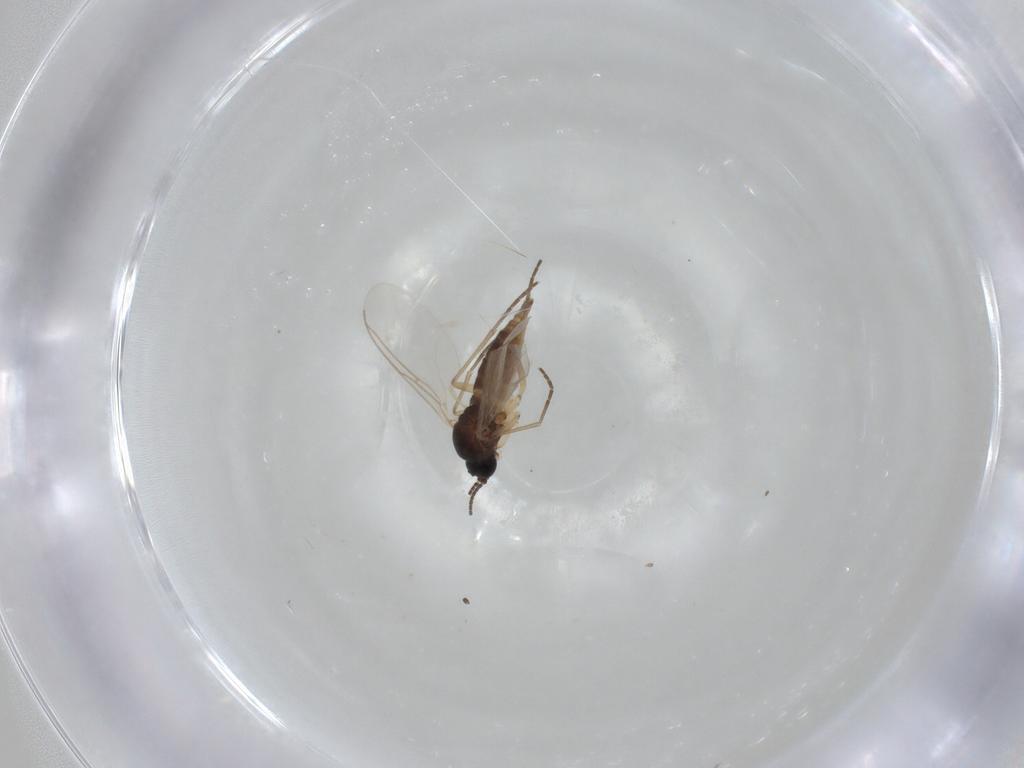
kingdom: Animalia
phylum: Arthropoda
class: Insecta
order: Diptera
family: Sciaridae
